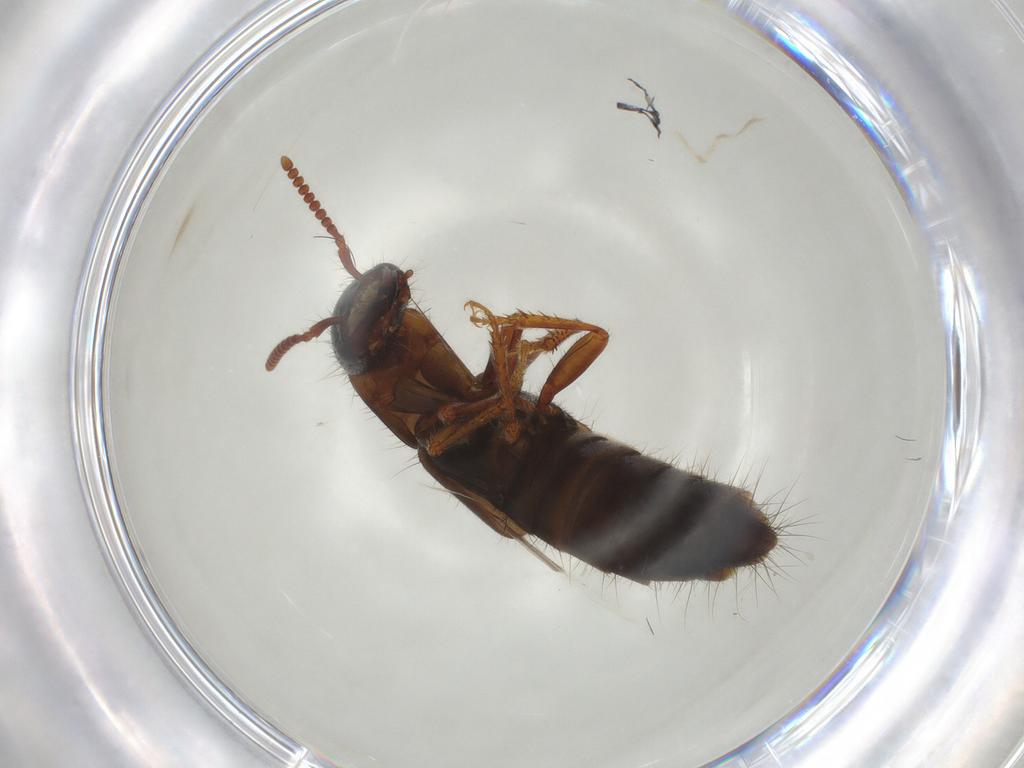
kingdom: Animalia
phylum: Arthropoda
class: Insecta
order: Coleoptera
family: Staphylinidae
